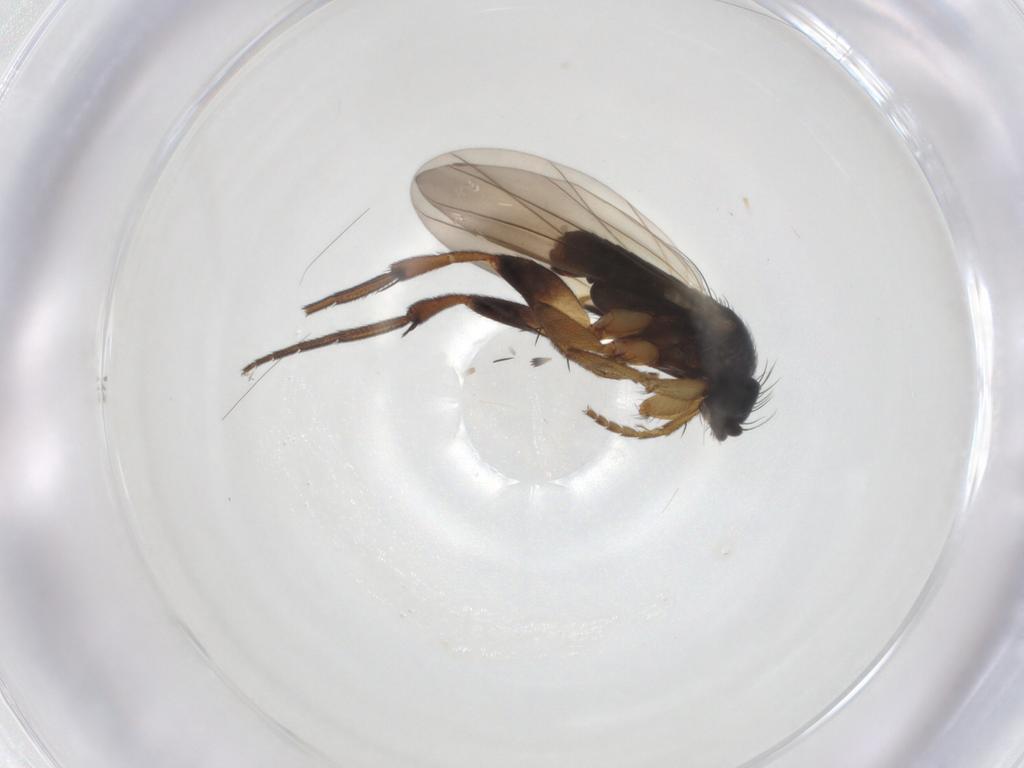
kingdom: Animalia
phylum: Arthropoda
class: Insecta
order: Diptera
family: Phoridae
